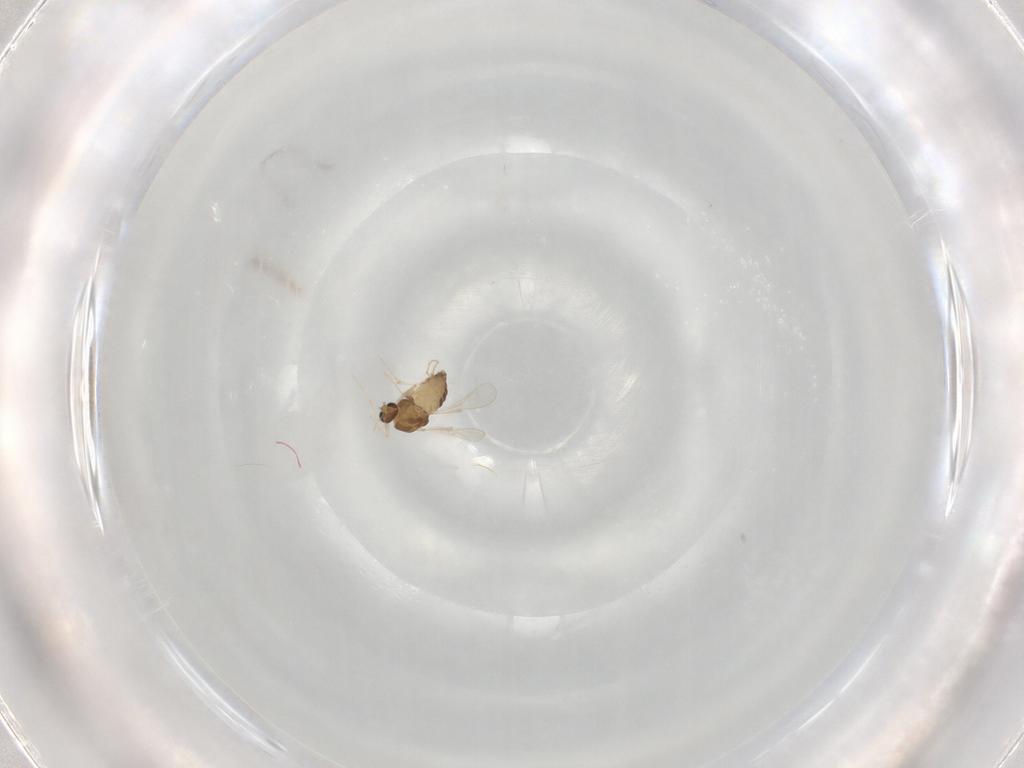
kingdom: Animalia
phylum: Arthropoda
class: Insecta
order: Diptera
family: Chironomidae
